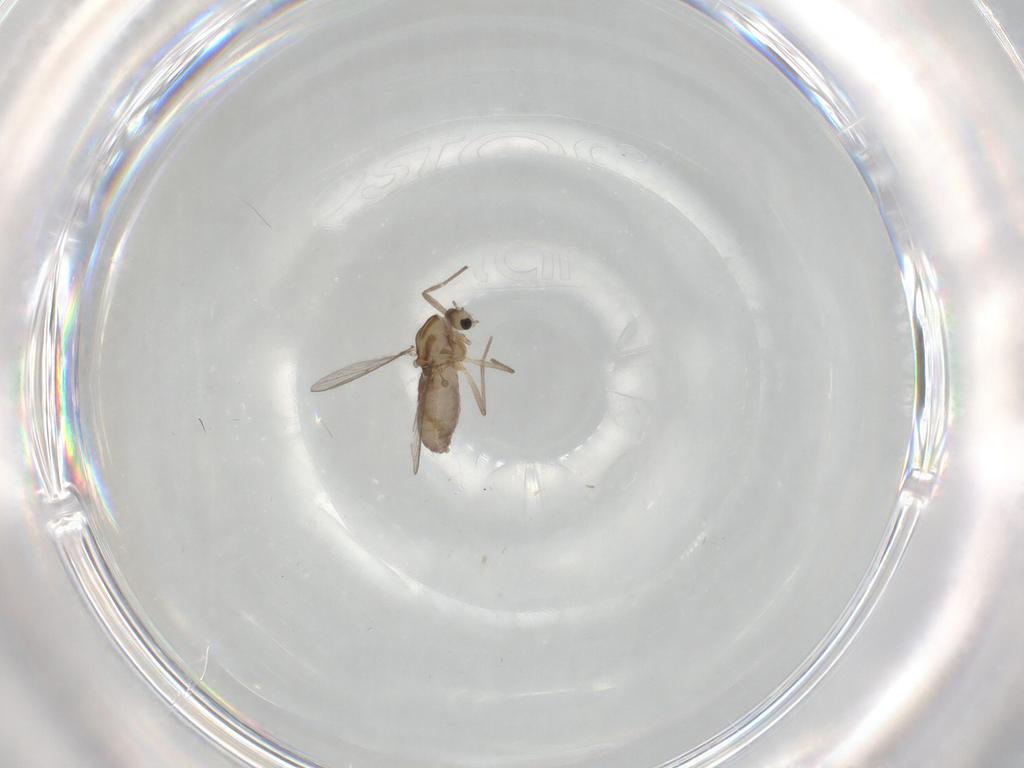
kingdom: Animalia
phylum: Arthropoda
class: Insecta
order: Diptera
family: Chironomidae
